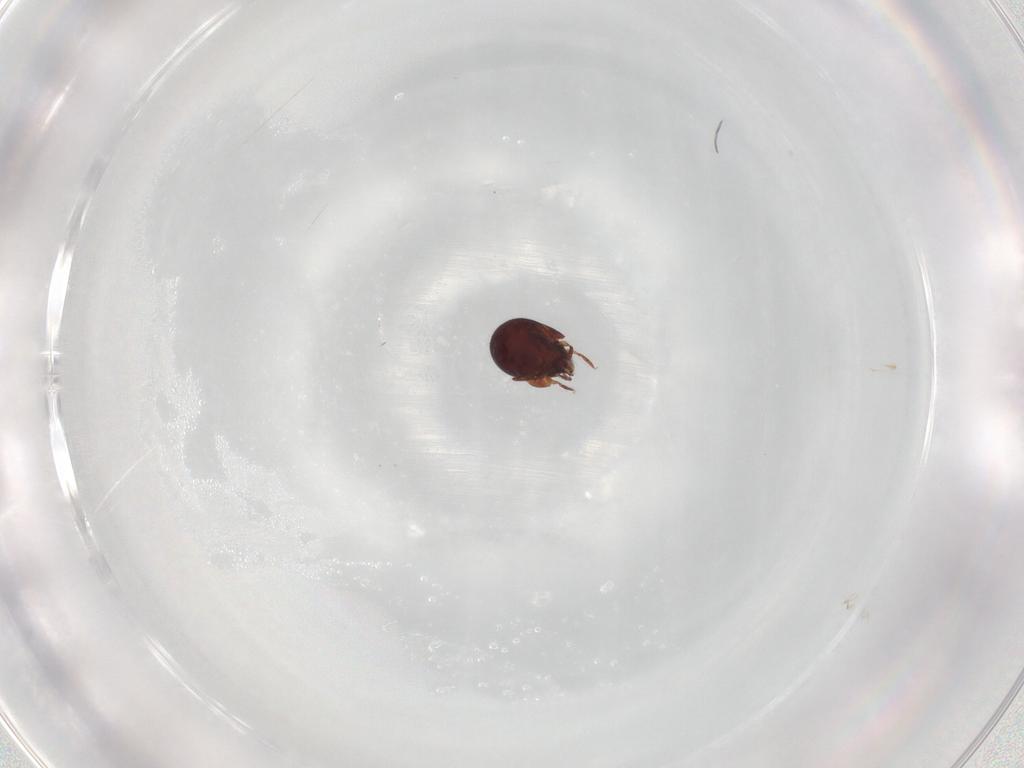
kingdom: Animalia
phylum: Arthropoda
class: Arachnida
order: Sarcoptiformes
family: Galumnidae
